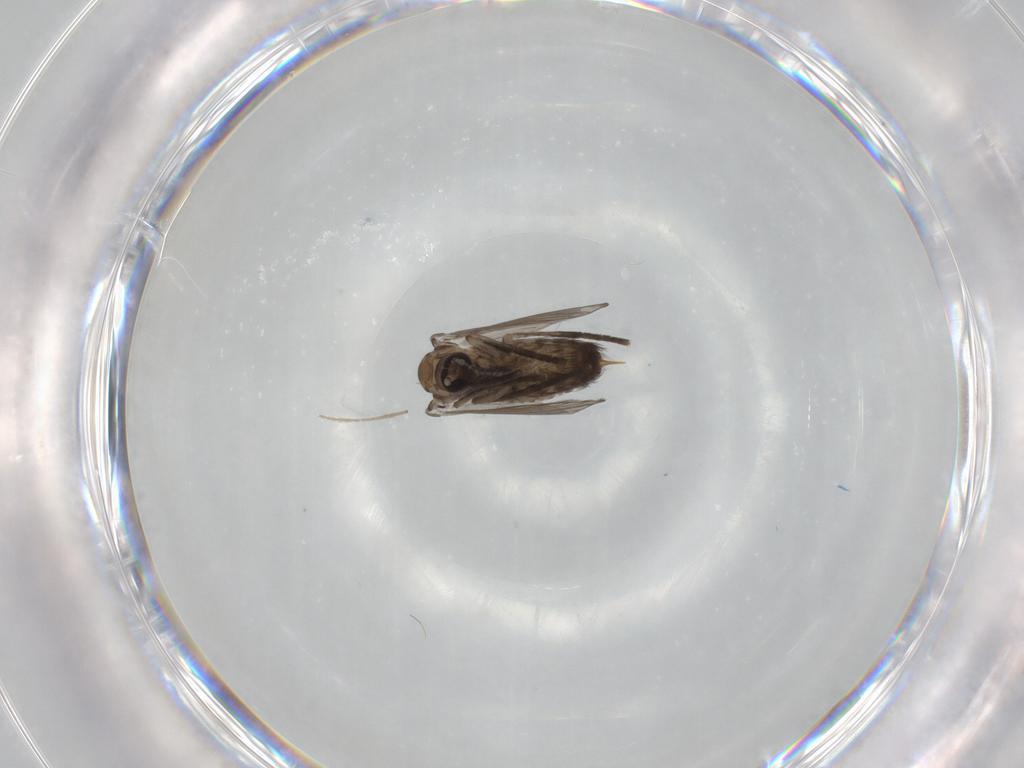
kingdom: Animalia
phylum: Arthropoda
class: Insecta
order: Diptera
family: Psychodidae
